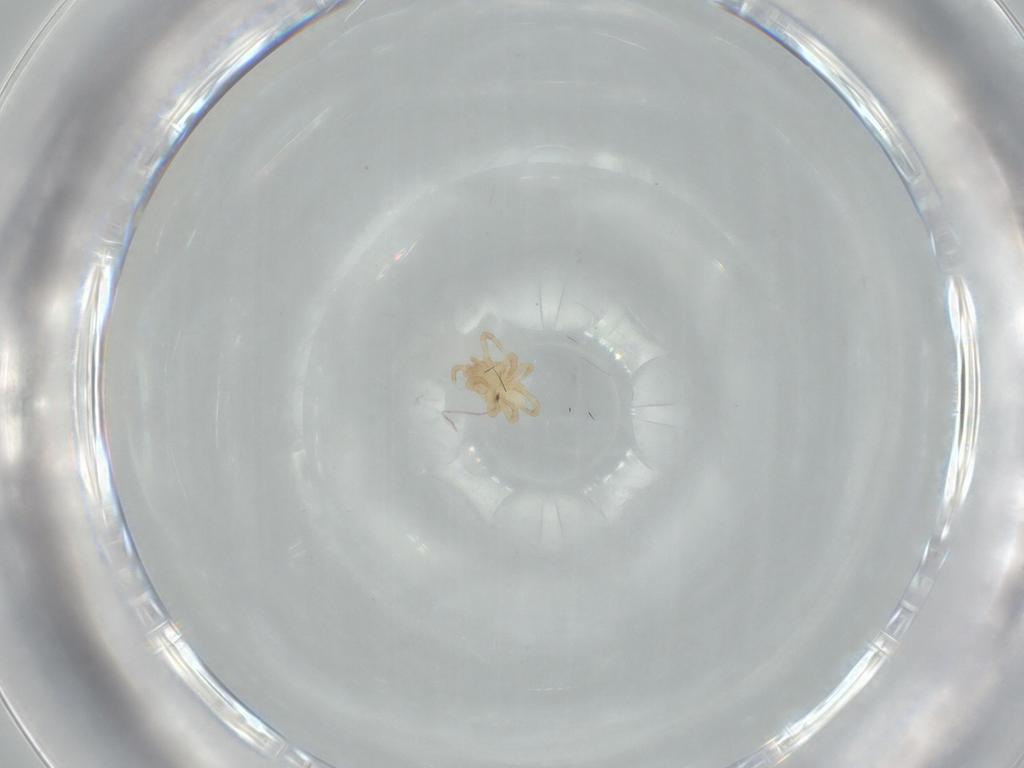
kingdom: Animalia
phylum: Arthropoda
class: Arachnida
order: Mesostigmata
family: Parasitidae
